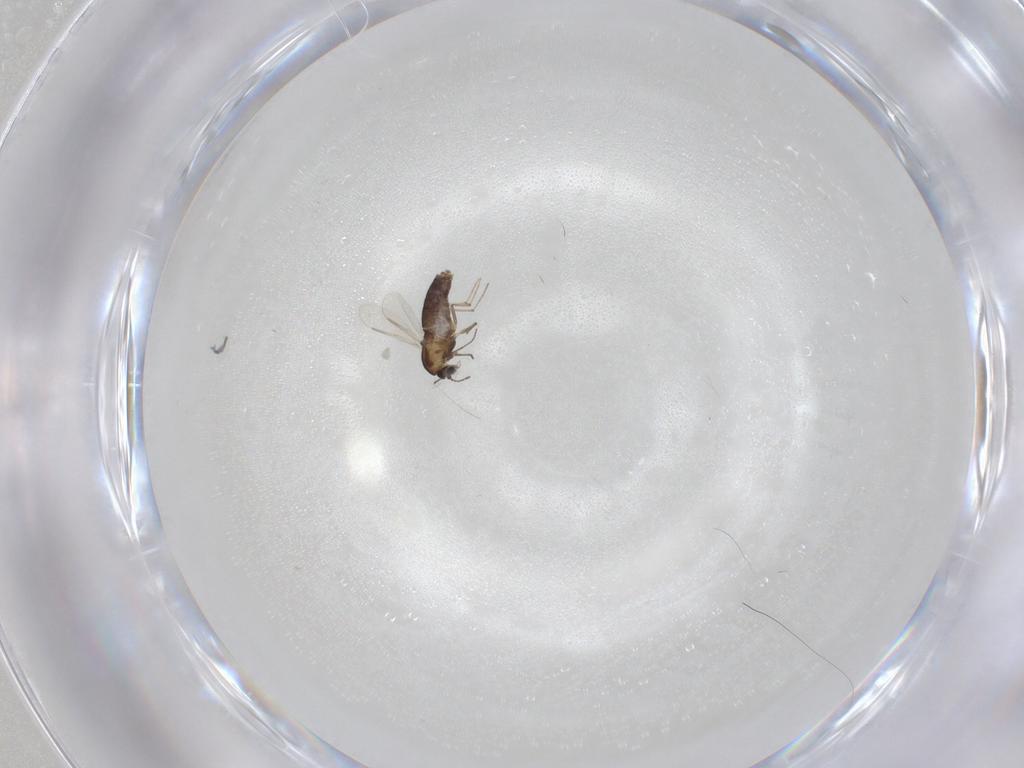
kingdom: Animalia
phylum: Arthropoda
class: Insecta
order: Diptera
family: Chironomidae
